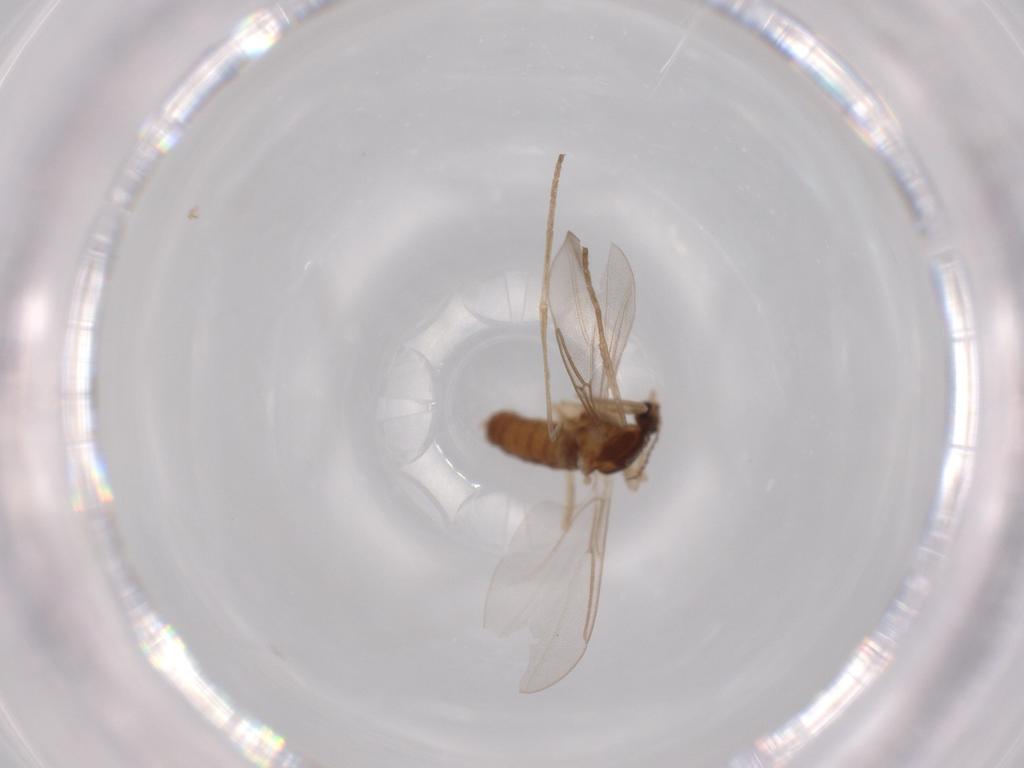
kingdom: Animalia
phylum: Arthropoda
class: Insecta
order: Diptera
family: Cecidomyiidae
